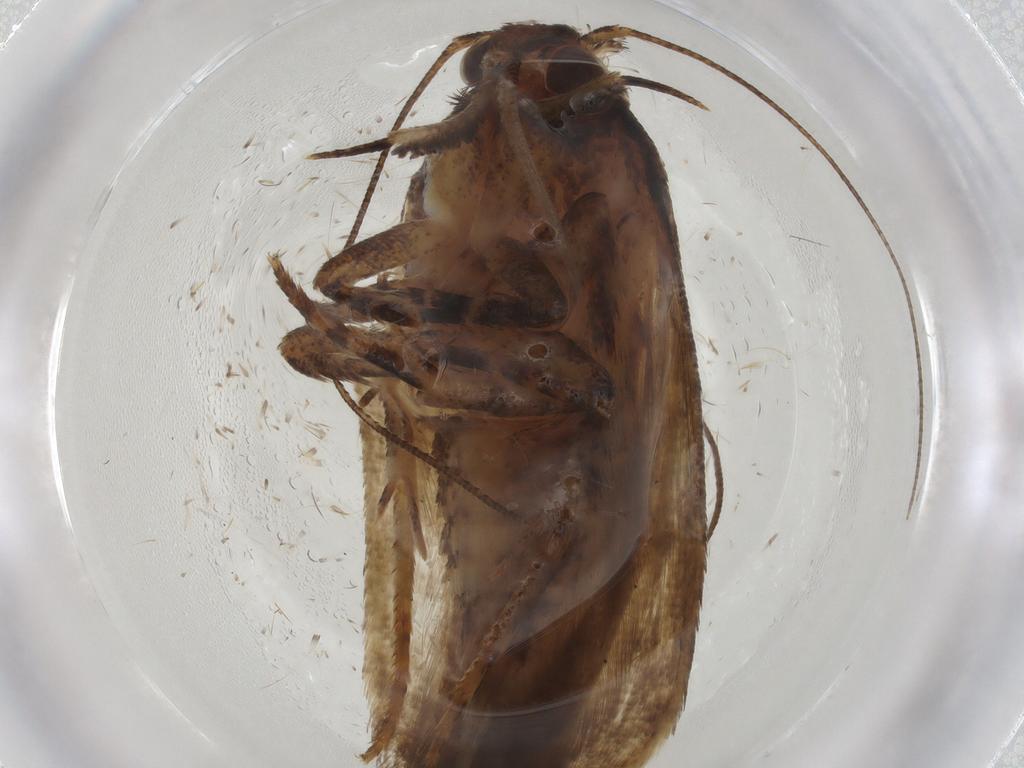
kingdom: Animalia
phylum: Arthropoda
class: Insecta
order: Lepidoptera
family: Gelechiidae
